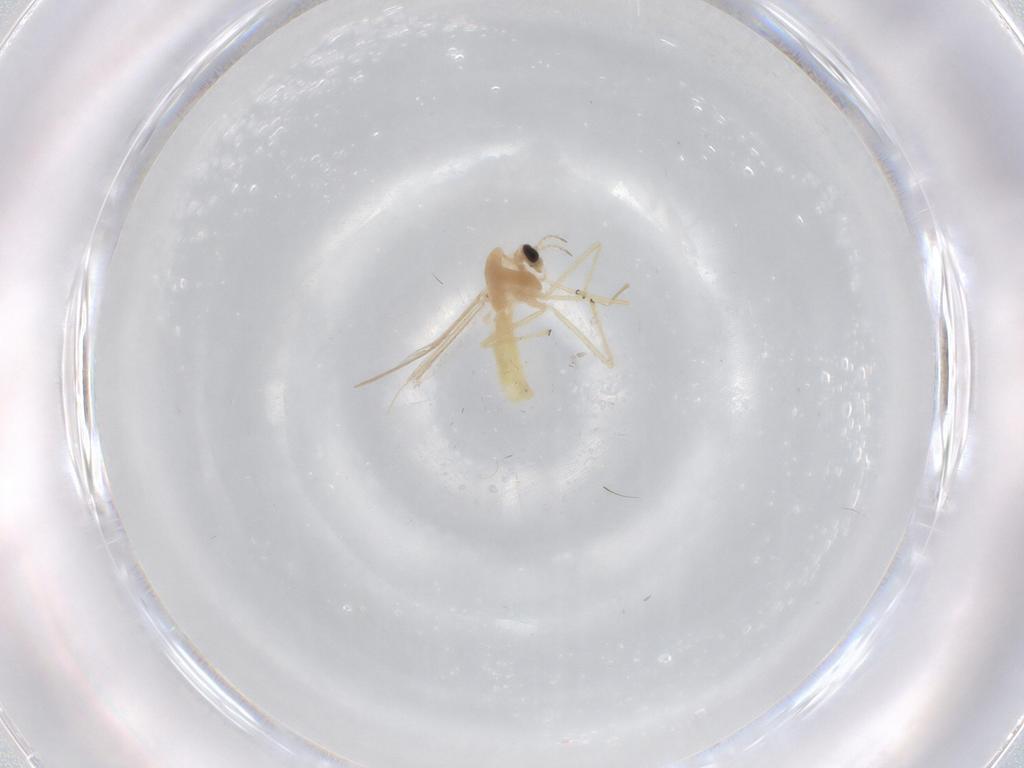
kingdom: Animalia
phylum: Arthropoda
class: Insecta
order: Diptera
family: Chironomidae
